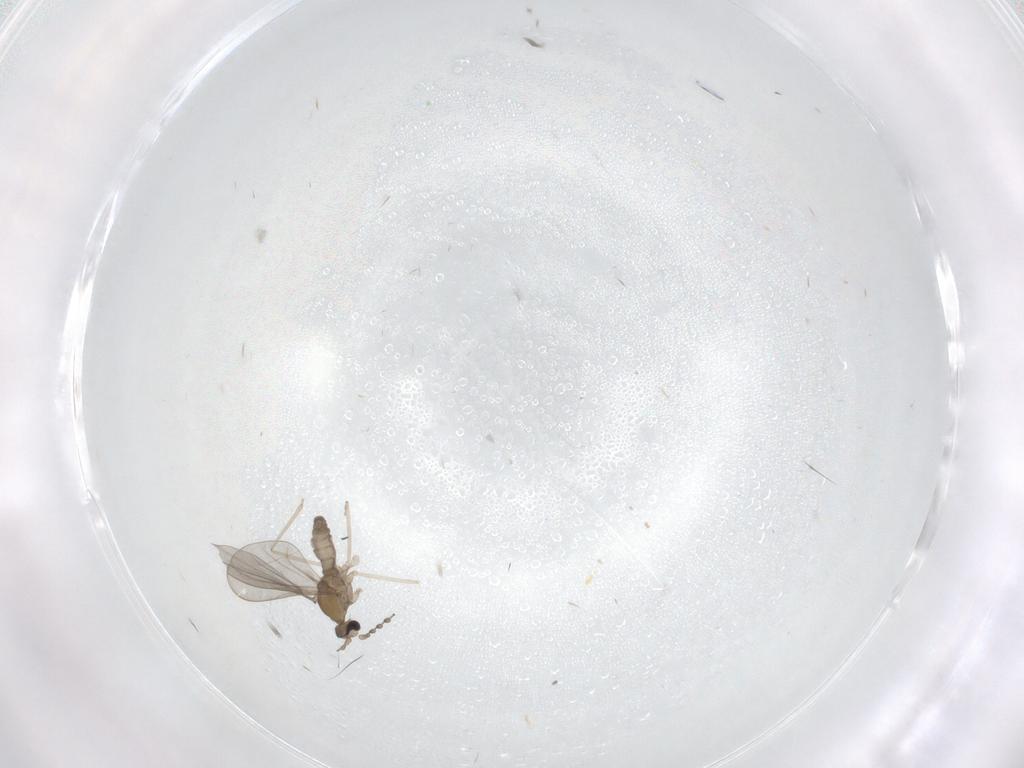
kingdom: Animalia
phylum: Arthropoda
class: Insecta
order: Diptera
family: Cecidomyiidae
